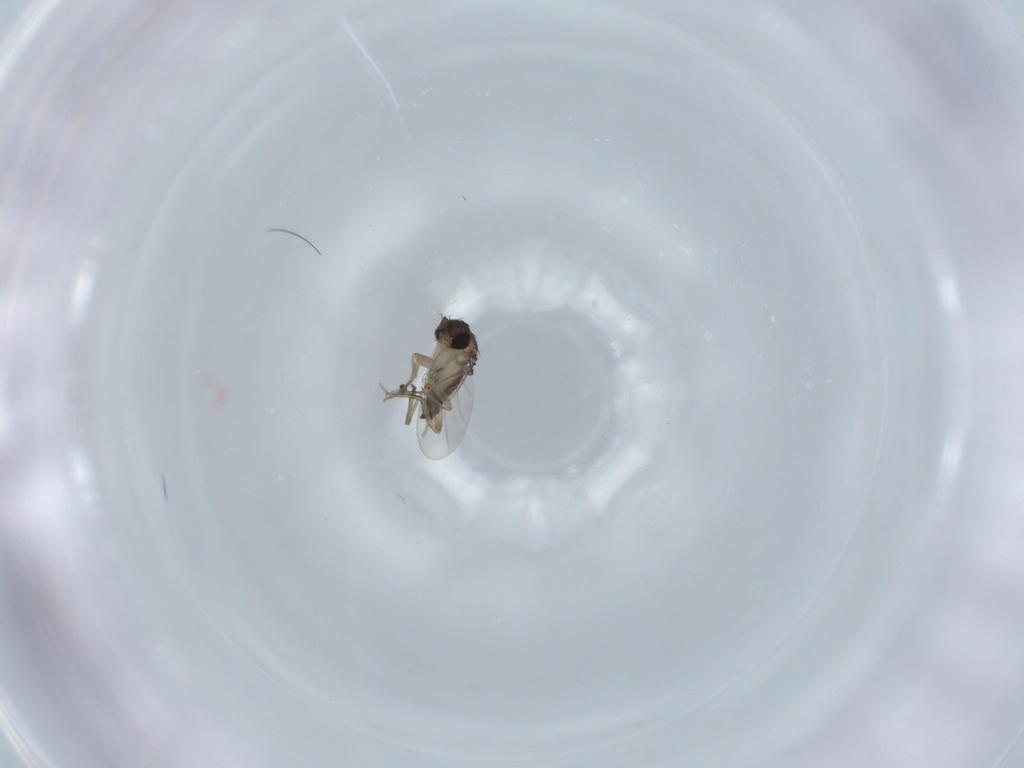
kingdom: Animalia
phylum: Arthropoda
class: Insecta
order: Diptera
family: Phoridae
